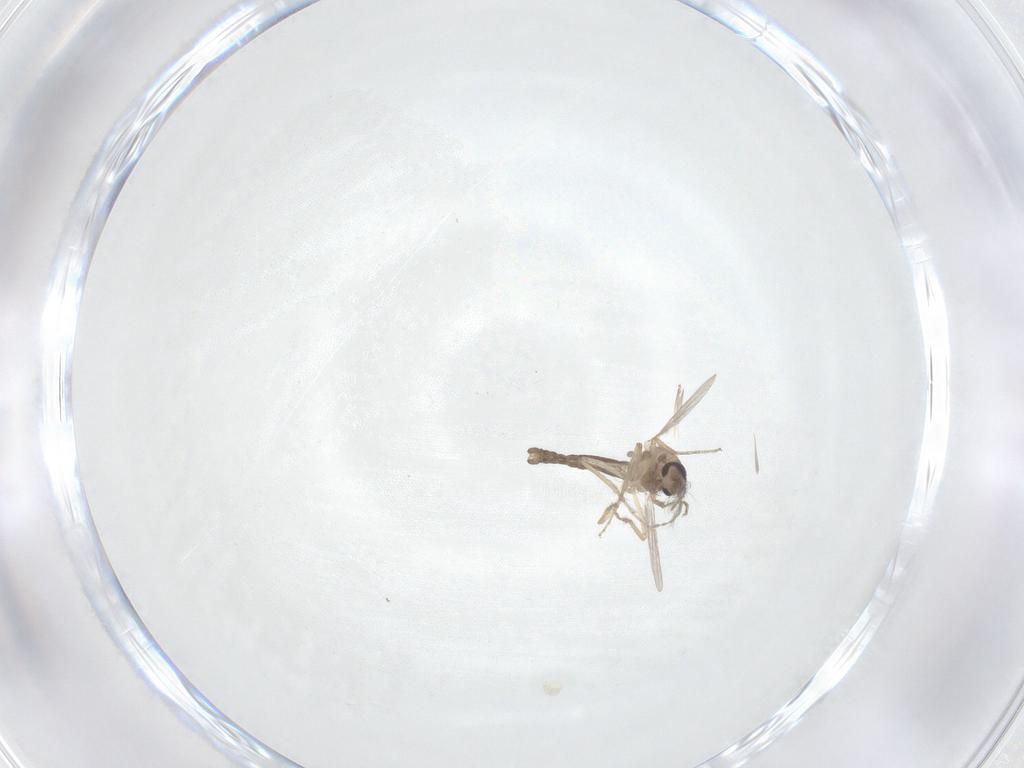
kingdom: Animalia
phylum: Arthropoda
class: Insecta
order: Diptera
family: Ceratopogonidae
